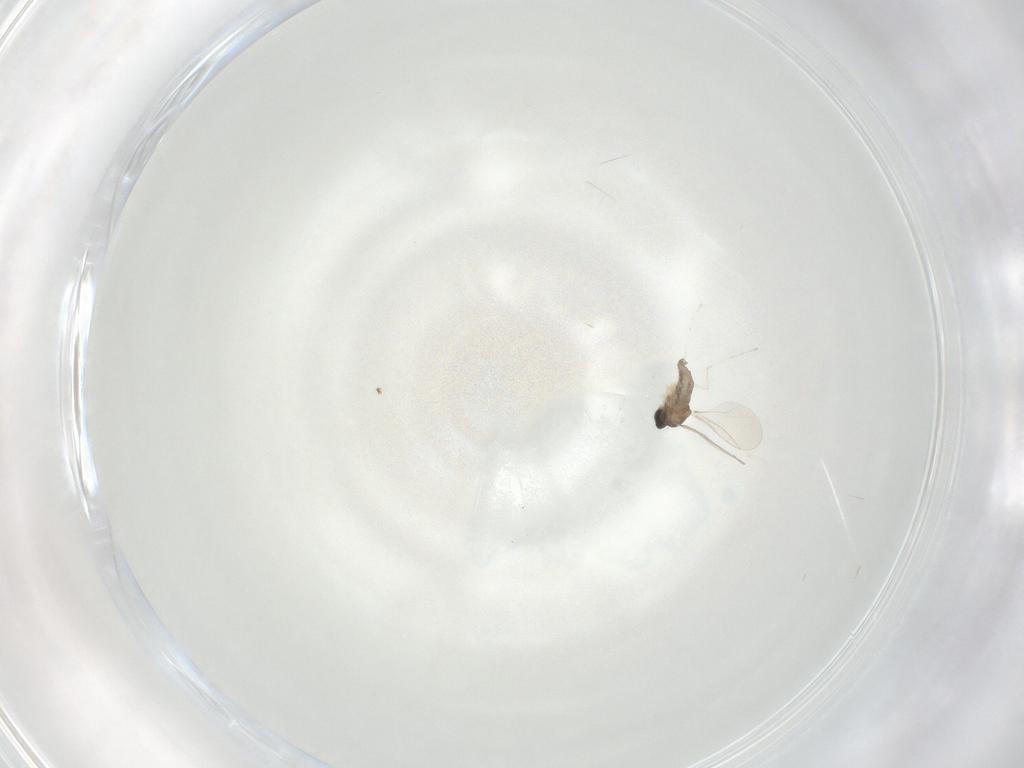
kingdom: Animalia
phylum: Arthropoda
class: Insecta
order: Diptera
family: Cecidomyiidae
